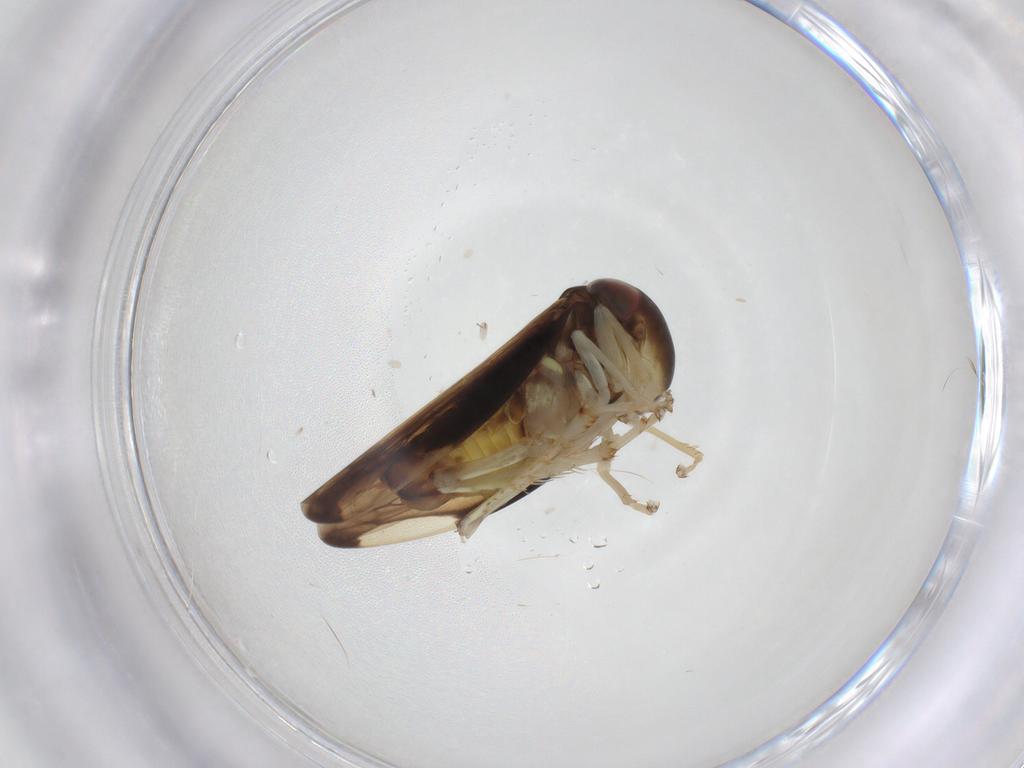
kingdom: Animalia
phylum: Arthropoda
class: Insecta
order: Hemiptera
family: Cicadellidae
